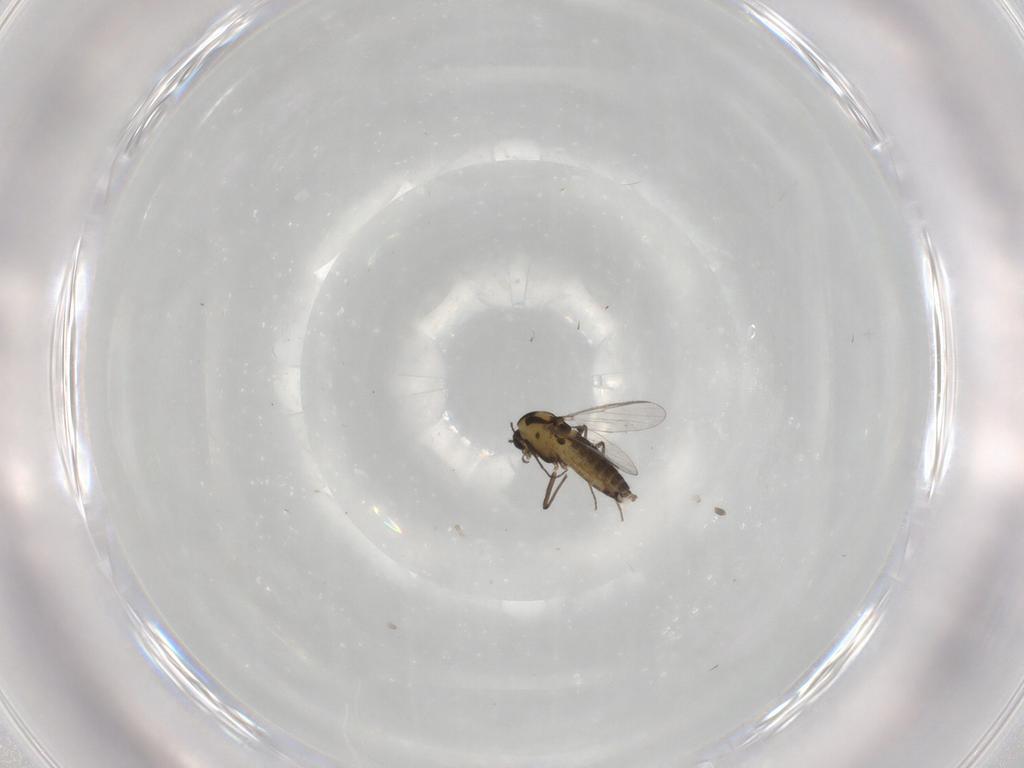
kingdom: Animalia
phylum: Arthropoda
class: Insecta
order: Diptera
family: Chironomidae
